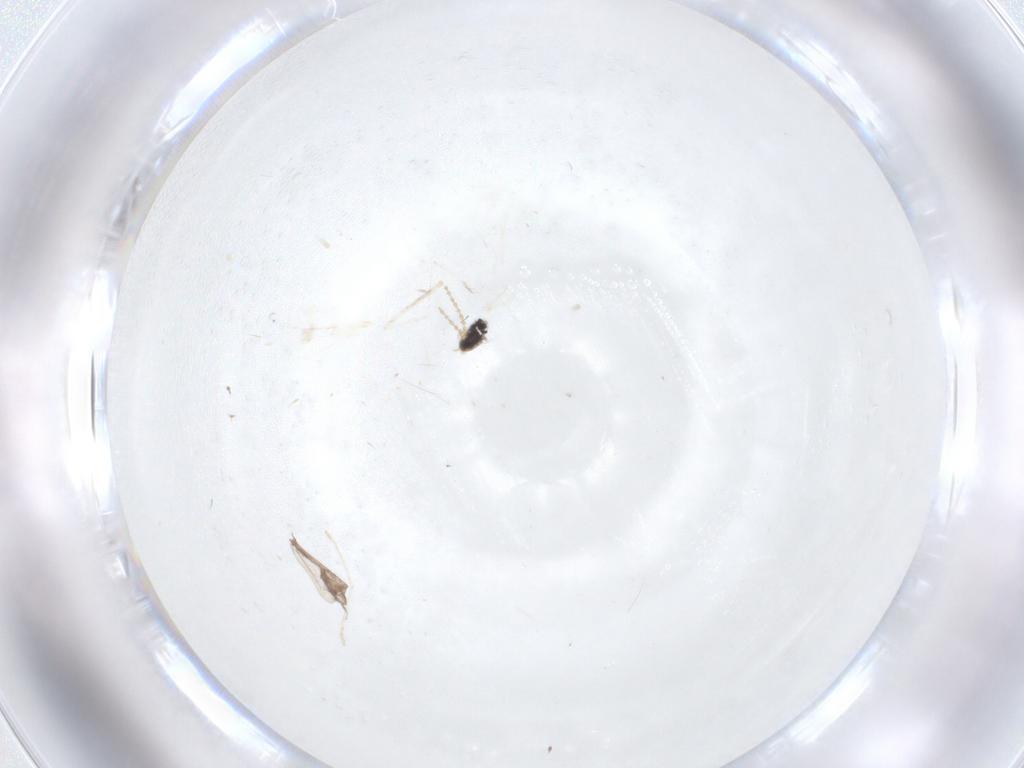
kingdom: Animalia
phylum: Arthropoda
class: Insecta
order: Diptera
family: Cecidomyiidae
